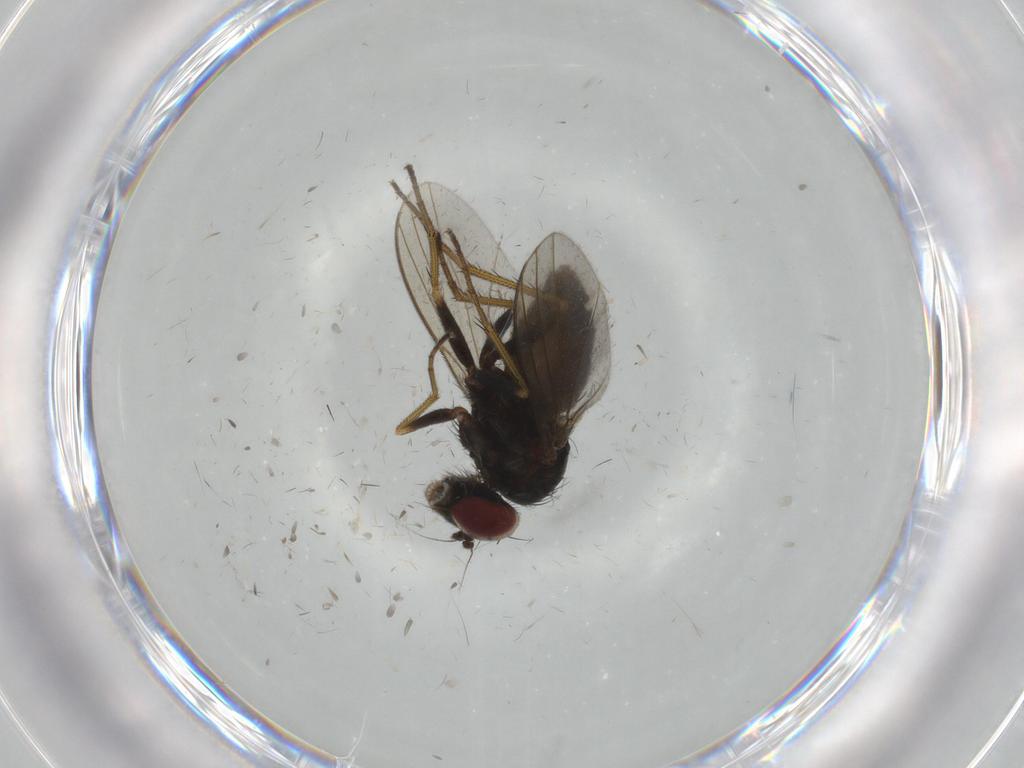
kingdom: Animalia
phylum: Arthropoda
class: Insecta
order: Diptera
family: Dolichopodidae
